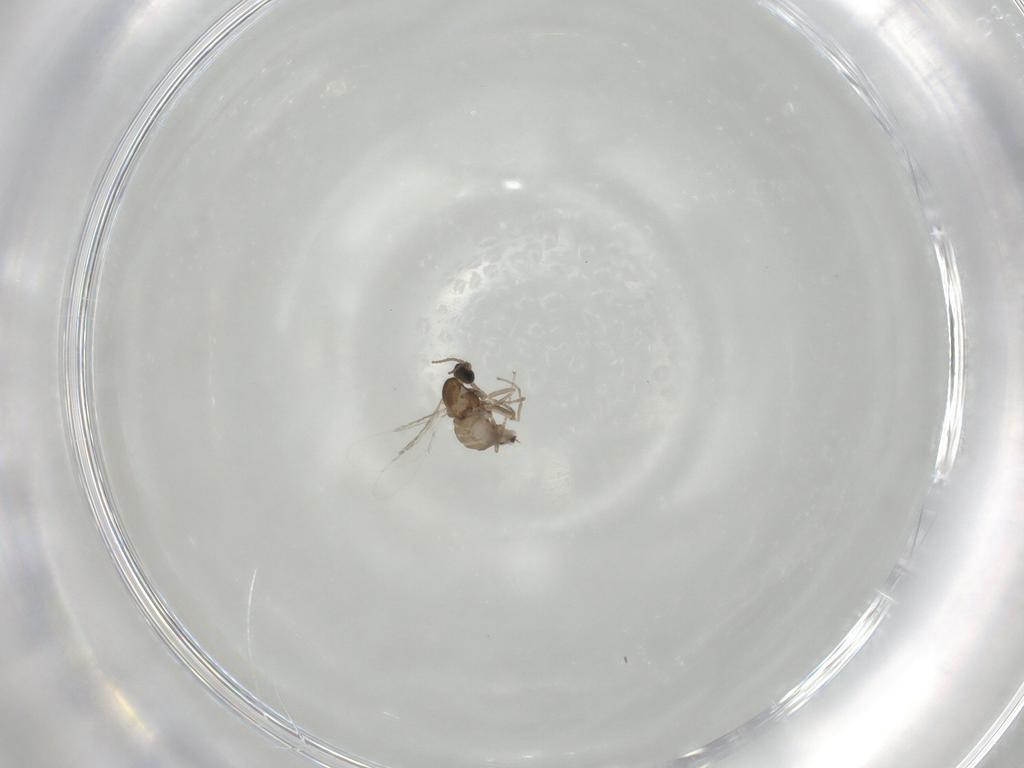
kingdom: Animalia
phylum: Arthropoda
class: Insecta
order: Diptera
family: Cecidomyiidae
